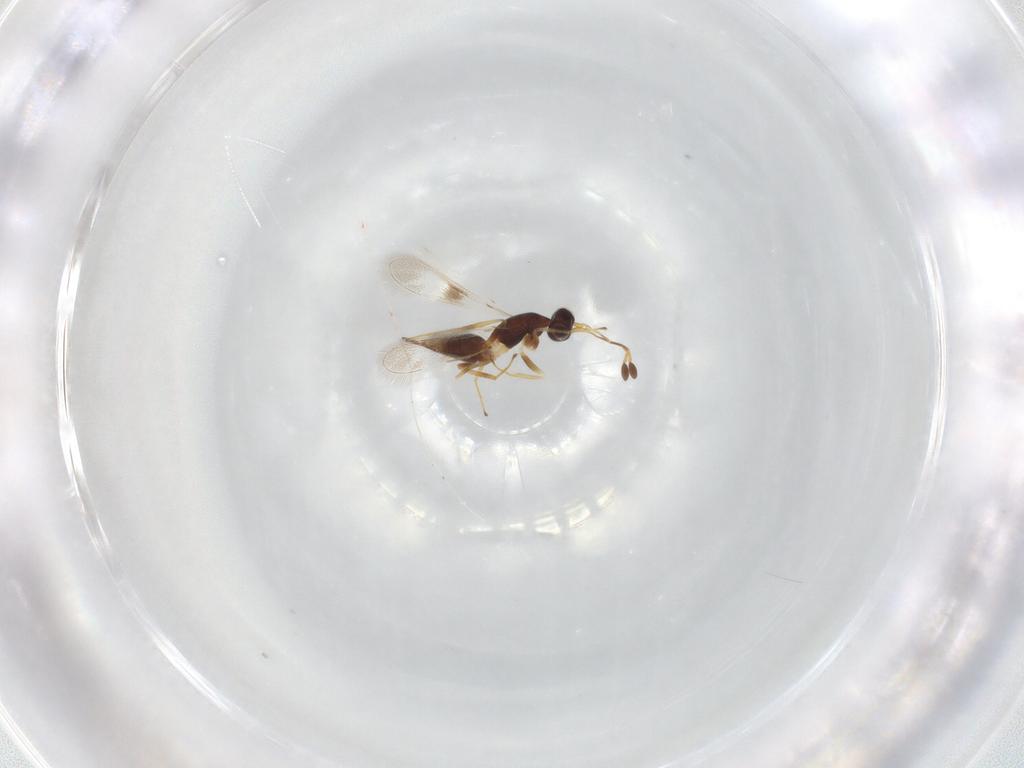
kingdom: Animalia
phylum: Arthropoda
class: Insecta
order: Hymenoptera
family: Mymaridae
